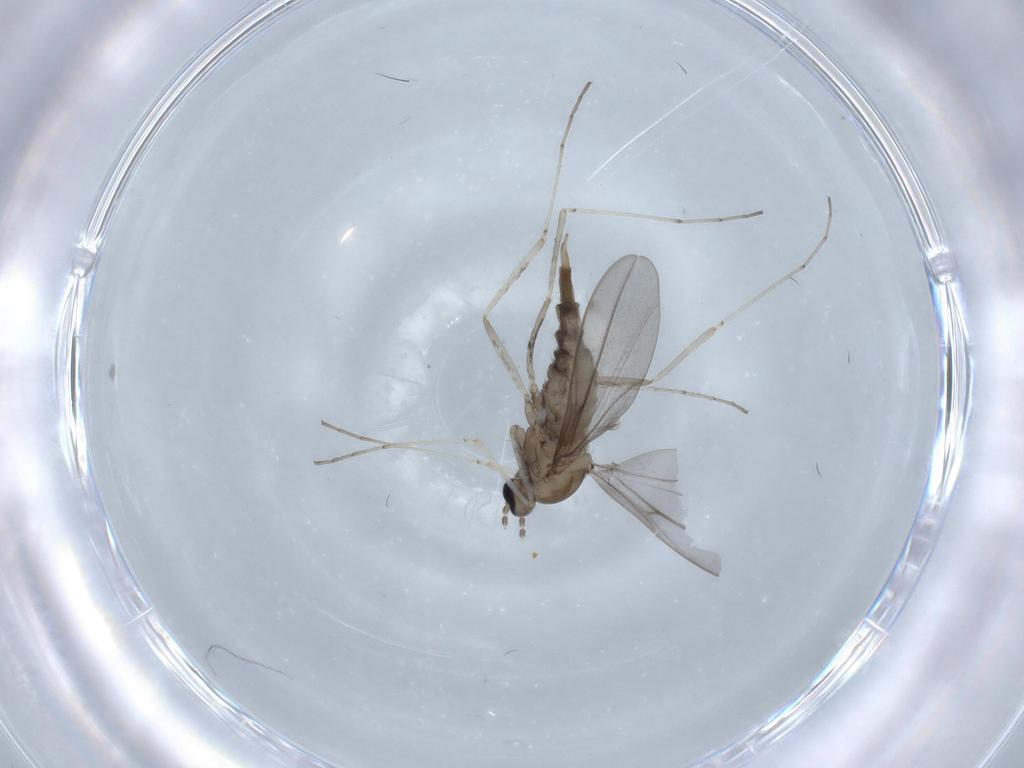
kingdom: Animalia
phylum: Arthropoda
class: Insecta
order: Diptera
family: Cecidomyiidae
